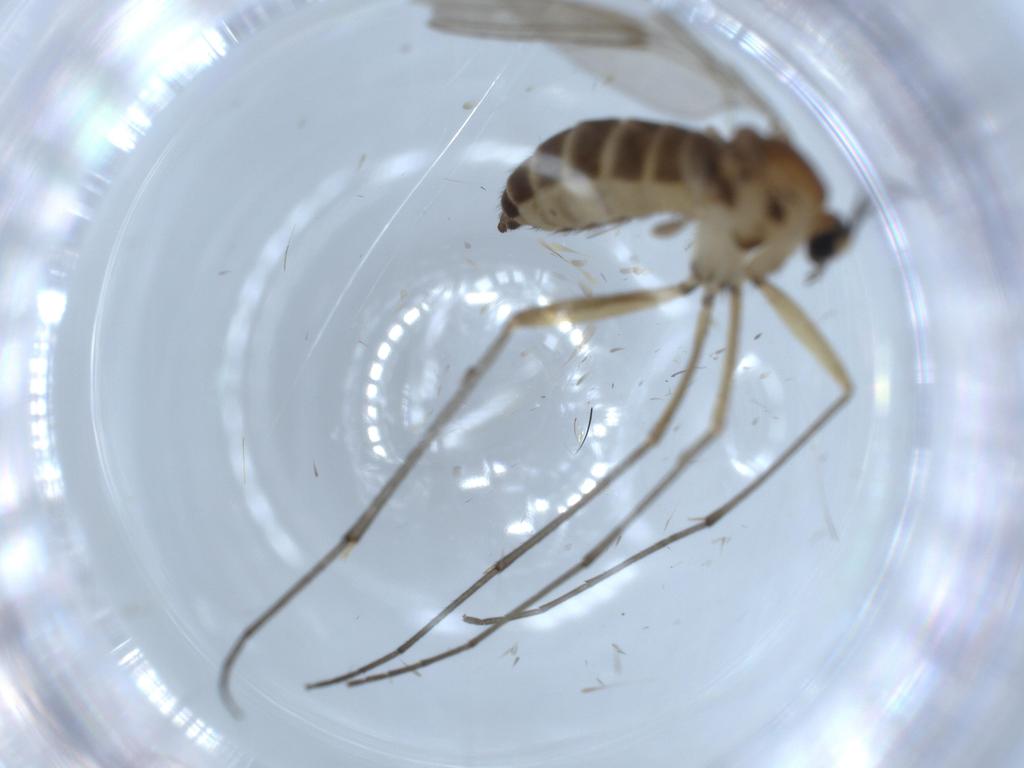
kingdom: Animalia
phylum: Arthropoda
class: Insecta
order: Diptera
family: Sciaridae
